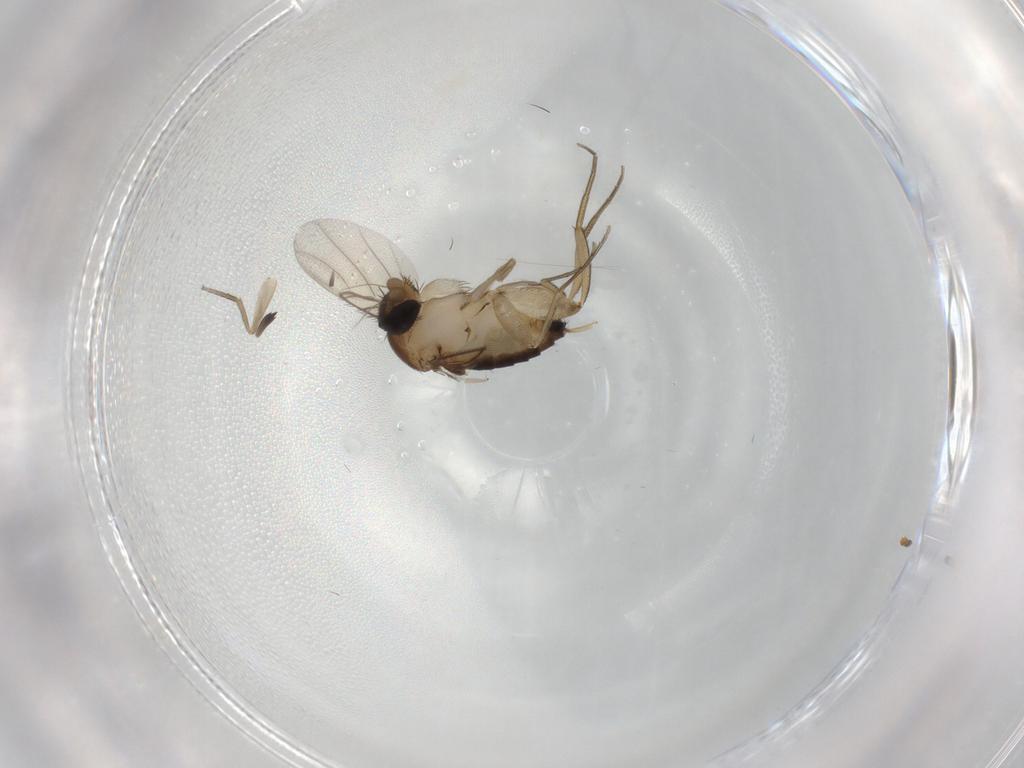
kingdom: Animalia
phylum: Arthropoda
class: Insecta
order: Diptera
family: Phoridae
